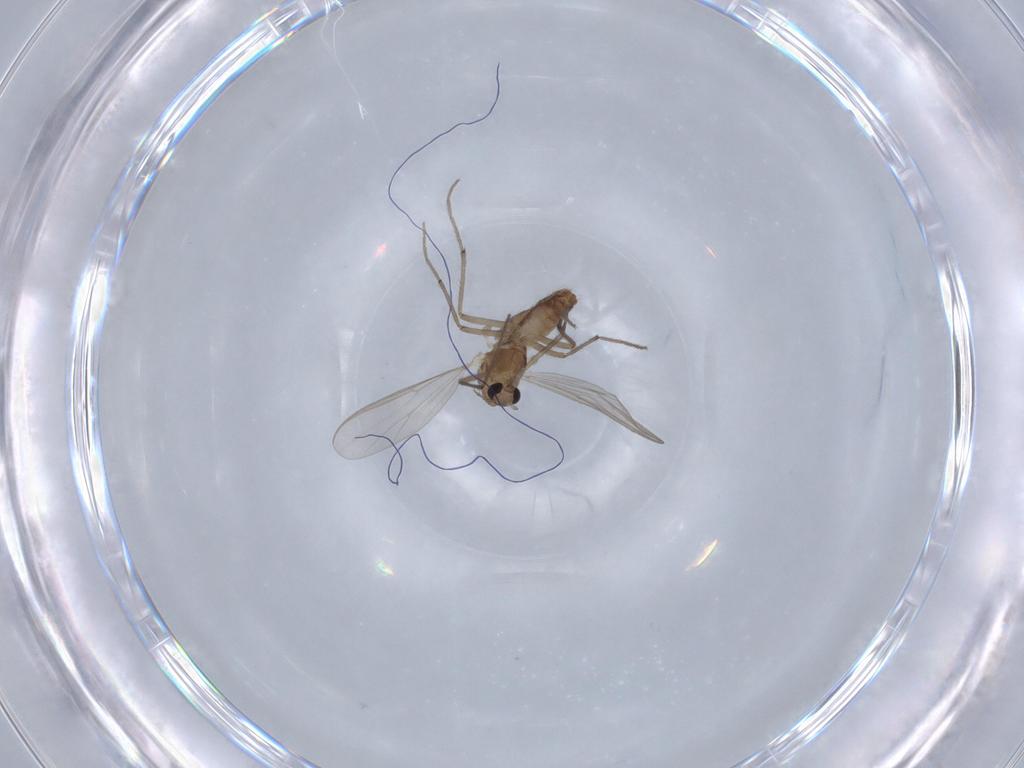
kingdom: Animalia
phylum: Arthropoda
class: Insecta
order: Diptera
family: Chironomidae
